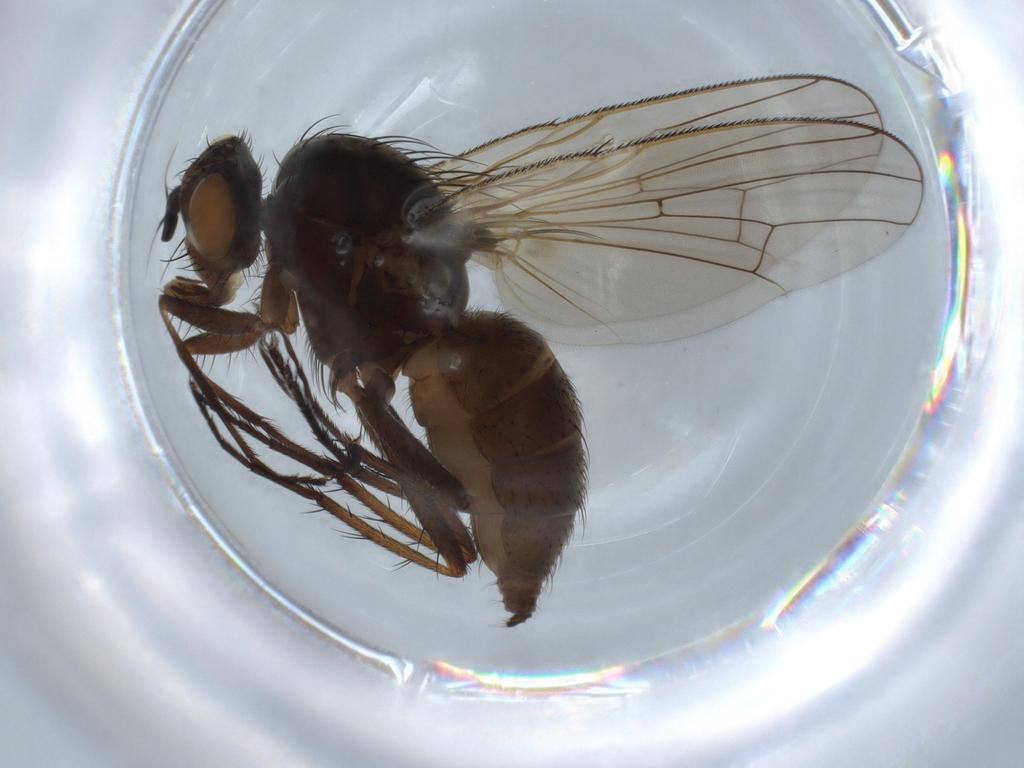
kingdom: Animalia
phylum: Arthropoda
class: Insecta
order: Diptera
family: Anthomyiidae
